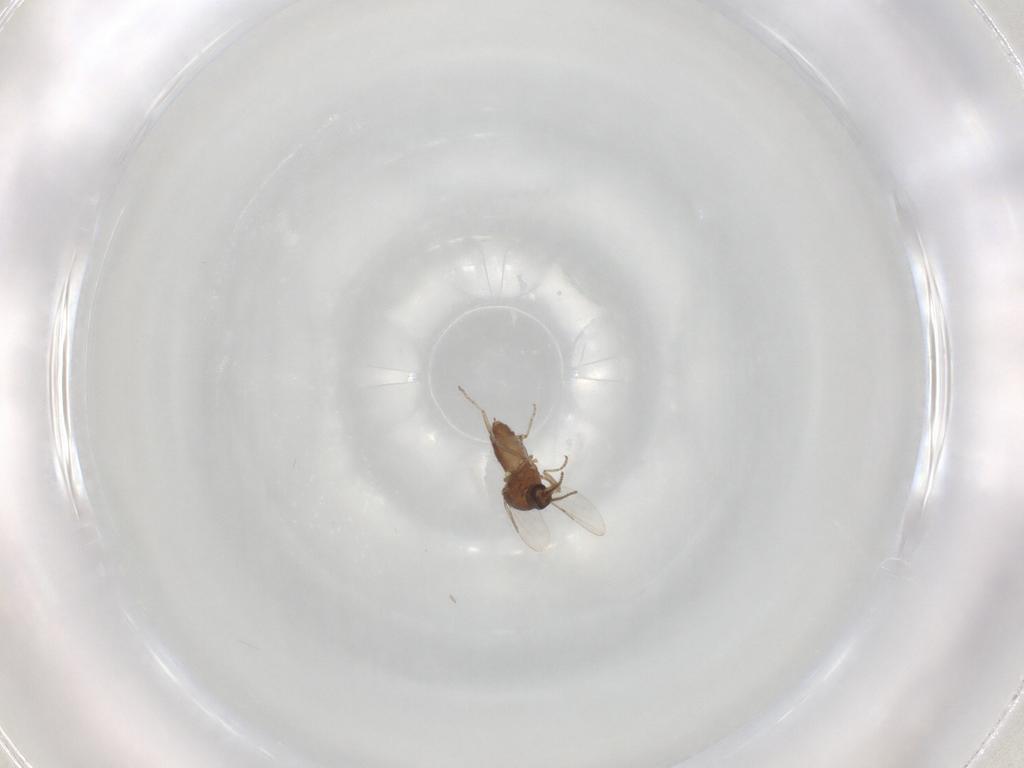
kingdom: Animalia
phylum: Arthropoda
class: Insecta
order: Diptera
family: Ceratopogonidae
